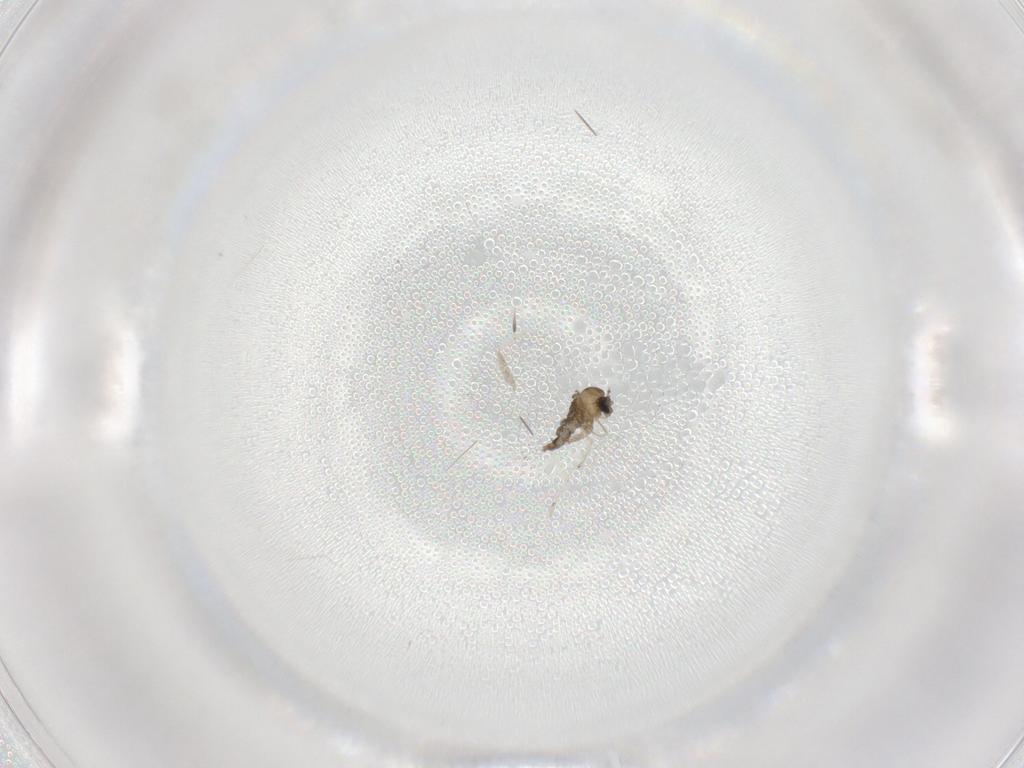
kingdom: Animalia
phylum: Arthropoda
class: Insecta
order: Diptera
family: Cecidomyiidae
